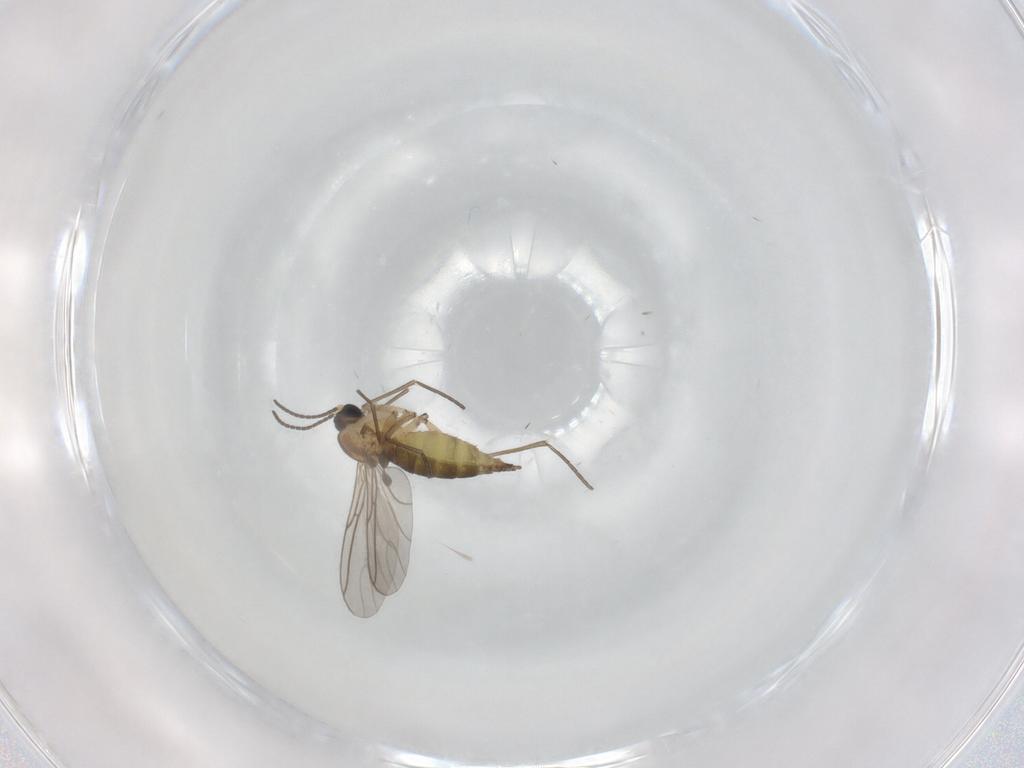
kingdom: Animalia
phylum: Arthropoda
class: Insecta
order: Diptera
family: Sciaridae
